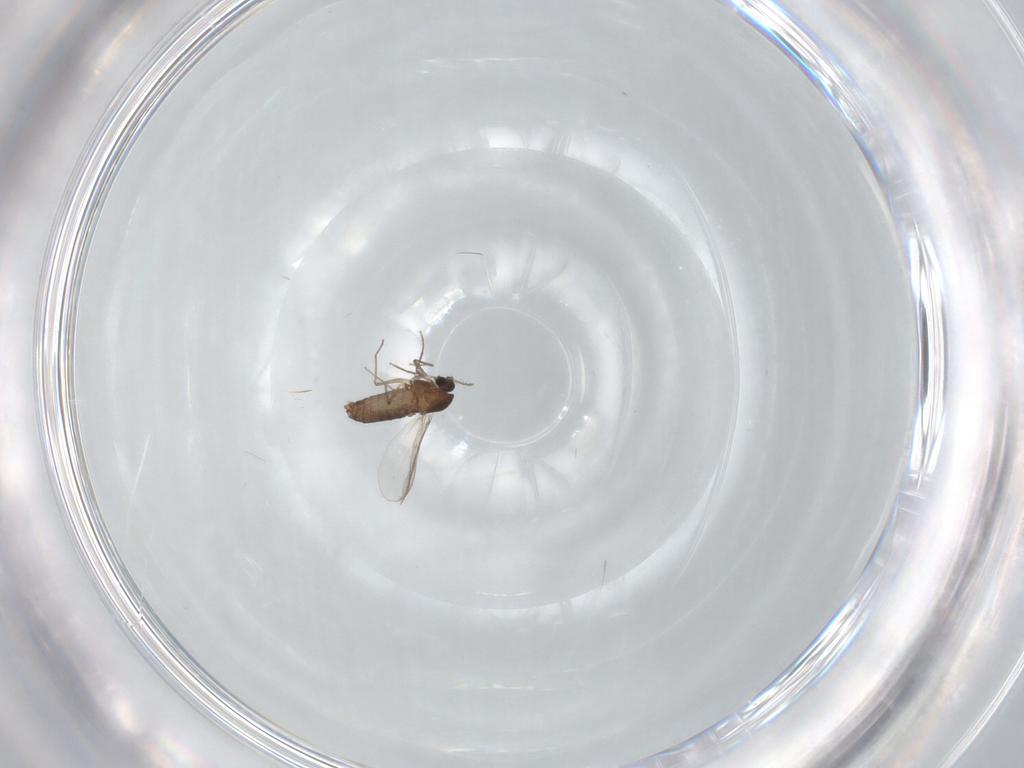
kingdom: Animalia
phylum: Arthropoda
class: Insecta
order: Diptera
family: Chironomidae
